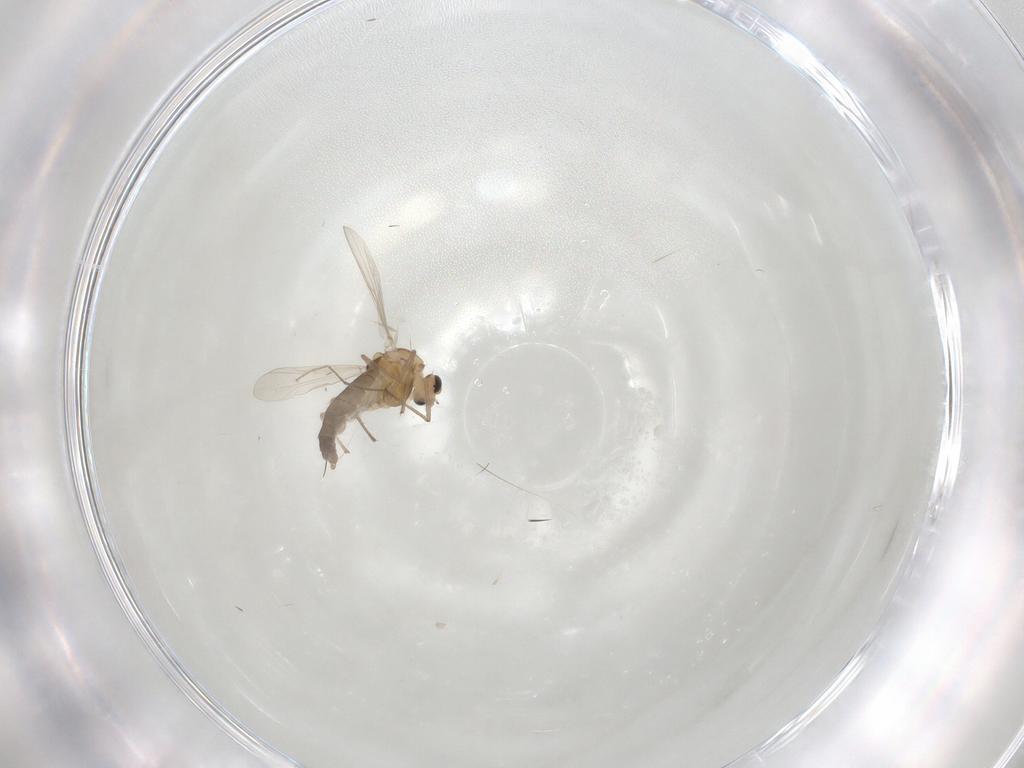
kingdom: Animalia
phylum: Arthropoda
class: Insecta
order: Diptera
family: Chironomidae
